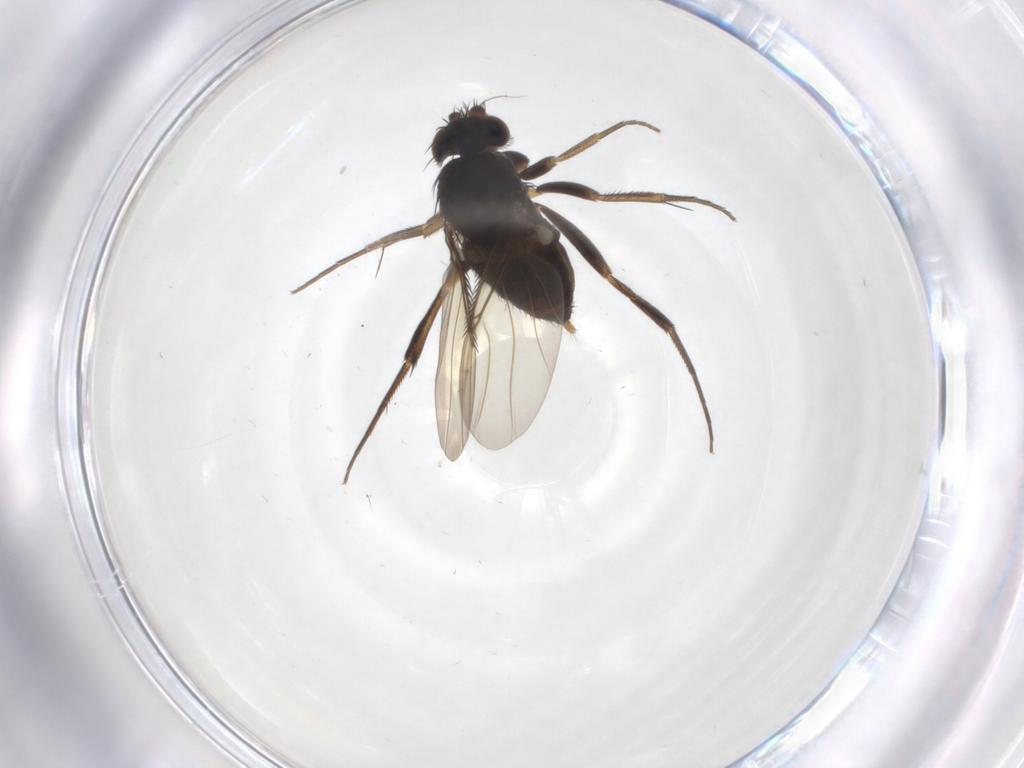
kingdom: Animalia
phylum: Arthropoda
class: Insecta
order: Diptera
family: Phoridae
